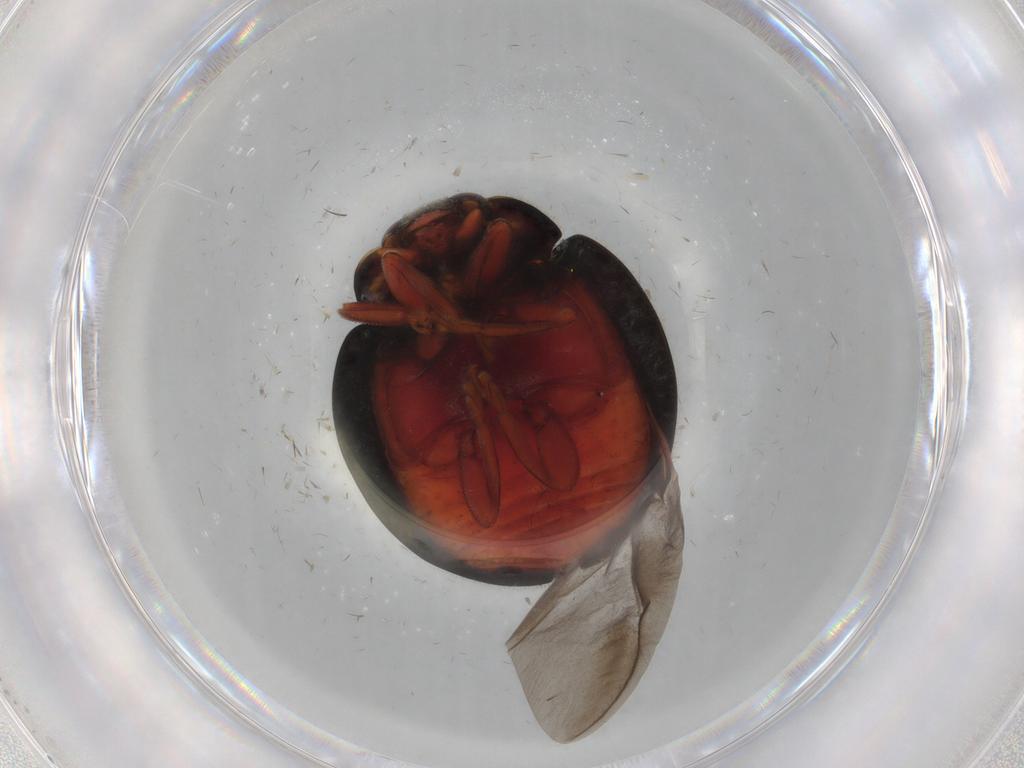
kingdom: Animalia
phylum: Arthropoda
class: Insecta
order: Coleoptera
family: Coccinellidae
